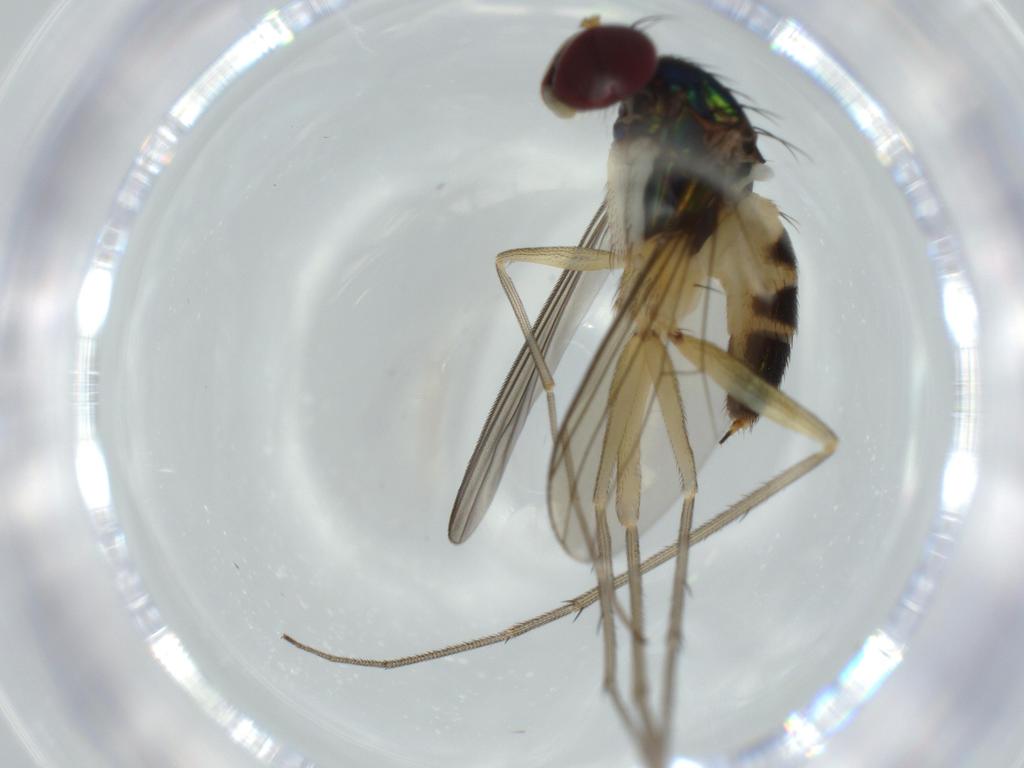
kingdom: Animalia
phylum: Arthropoda
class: Insecta
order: Diptera
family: Dolichopodidae
